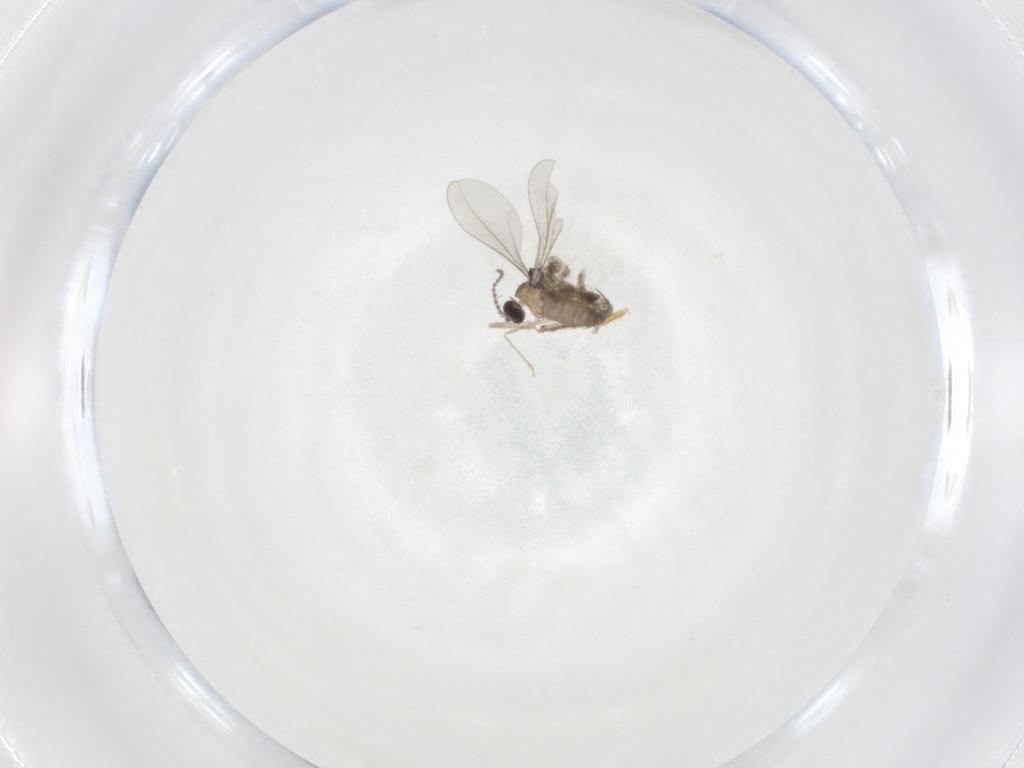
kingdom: Animalia
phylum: Arthropoda
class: Insecta
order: Diptera
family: Cecidomyiidae
